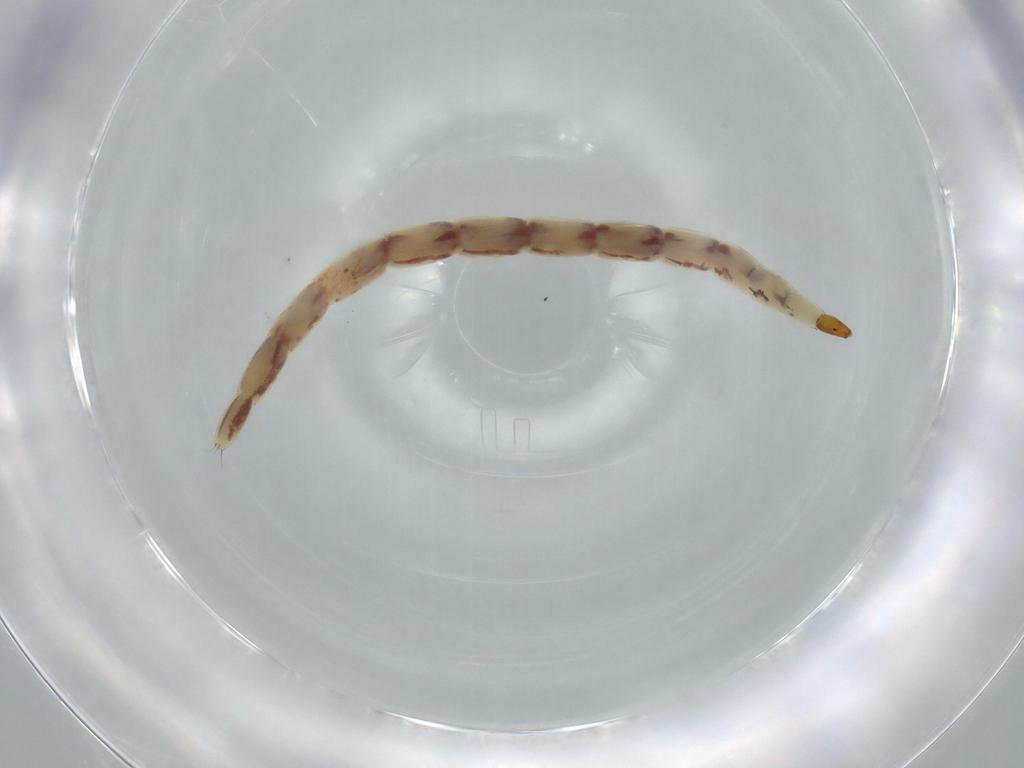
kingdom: Animalia
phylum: Arthropoda
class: Insecta
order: Diptera
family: Ceratopogonidae
